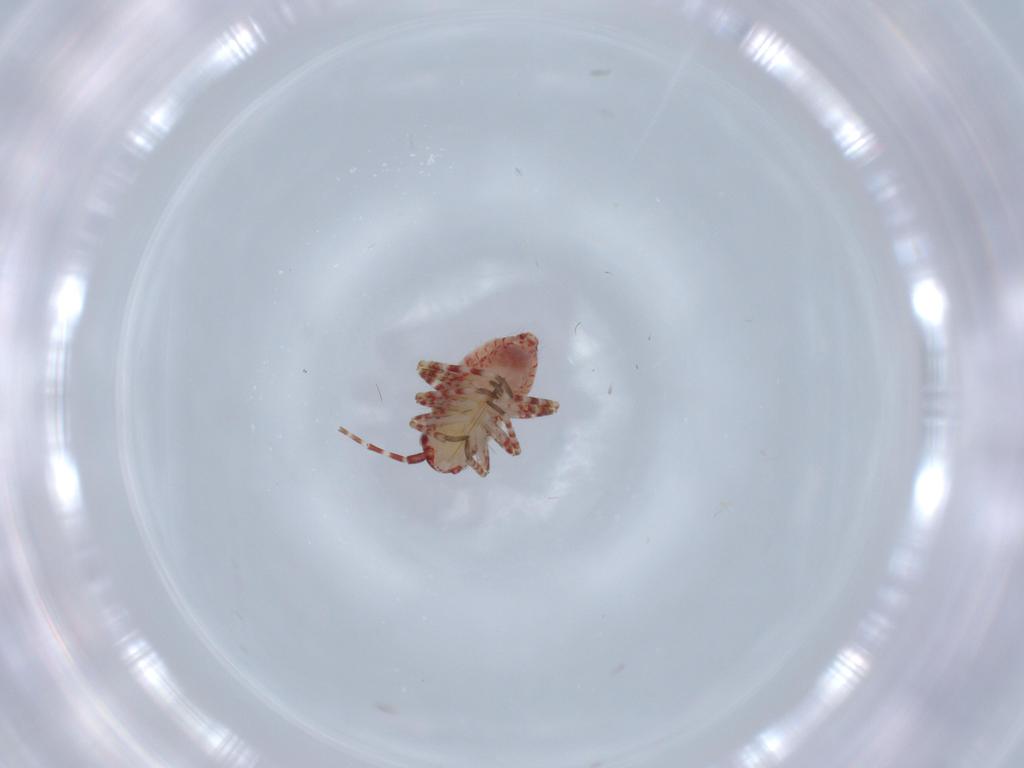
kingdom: Animalia
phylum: Arthropoda
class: Insecta
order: Hemiptera
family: Miridae
